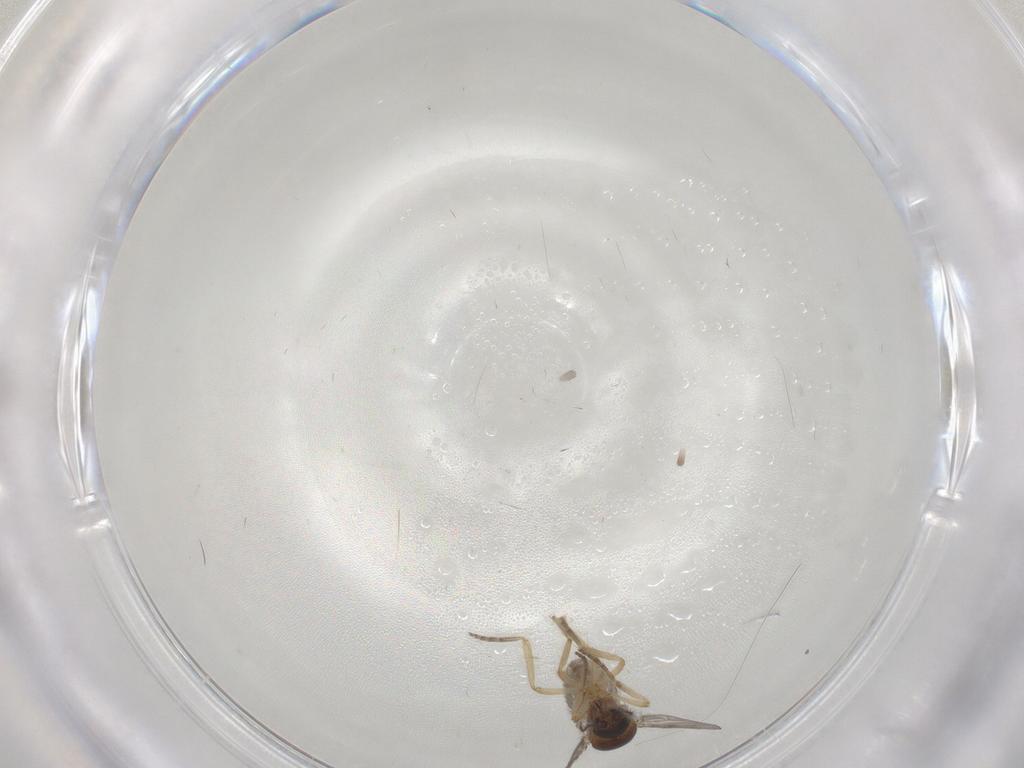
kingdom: Animalia
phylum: Arthropoda
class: Insecta
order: Diptera
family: Ceratopogonidae
